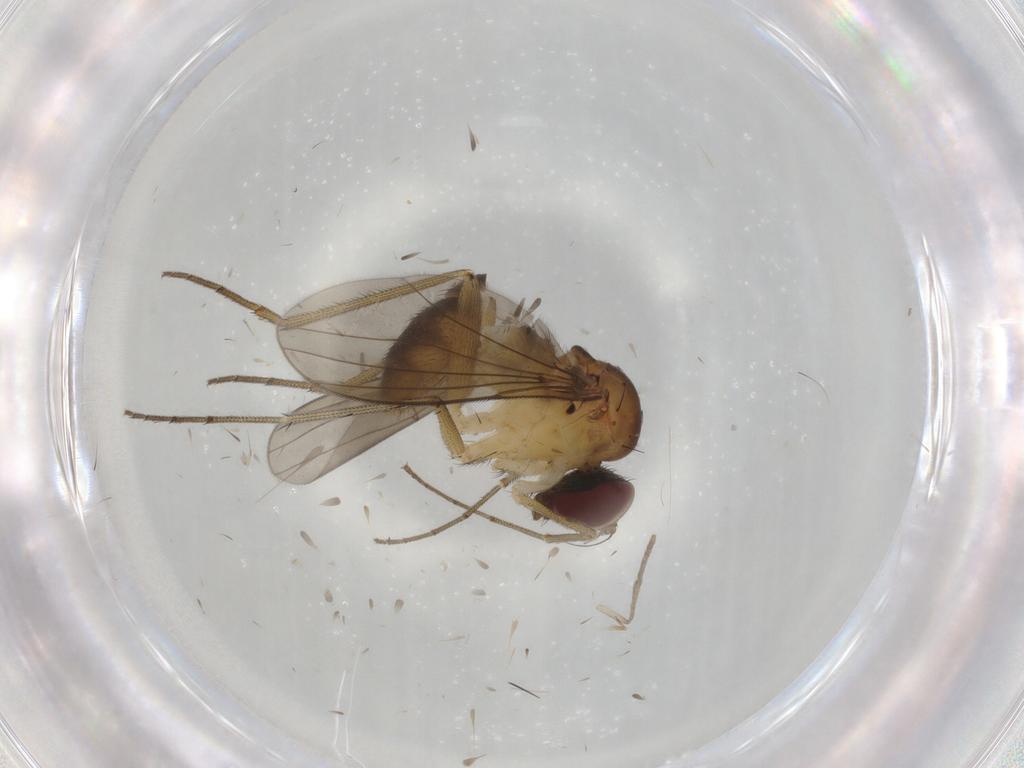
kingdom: Animalia
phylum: Arthropoda
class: Insecta
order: Diptera
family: Dolichopodidae
